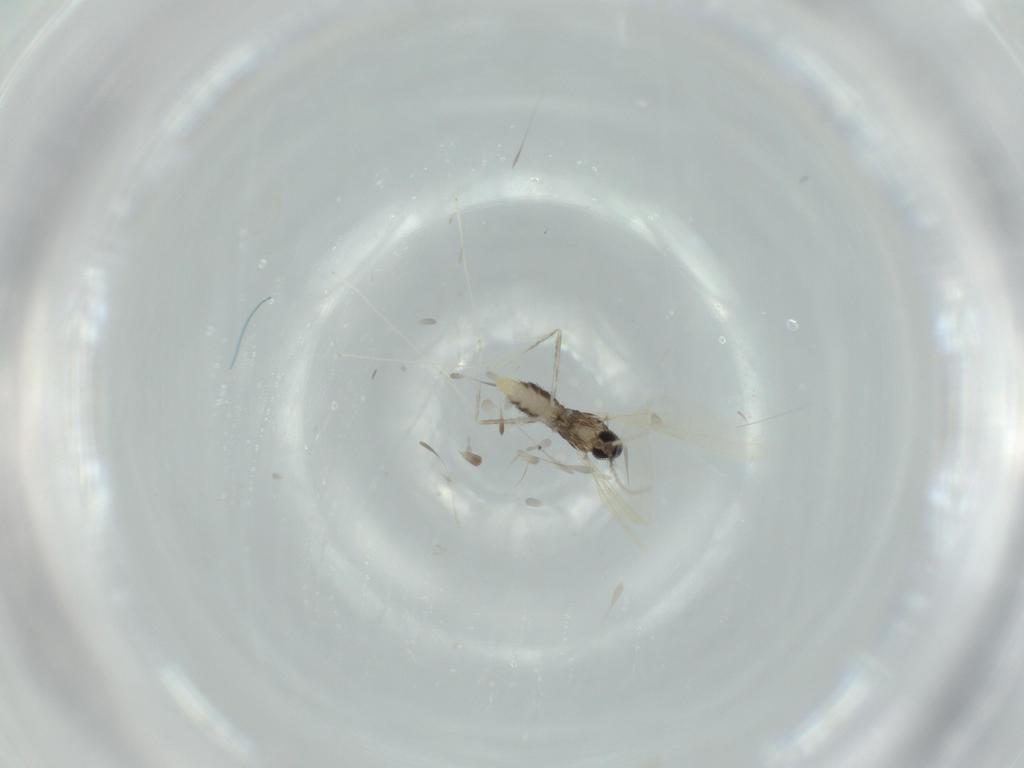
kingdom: Animalia
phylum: Arthropoda
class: Insecta
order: Diptera
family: Cecidomyiidae
